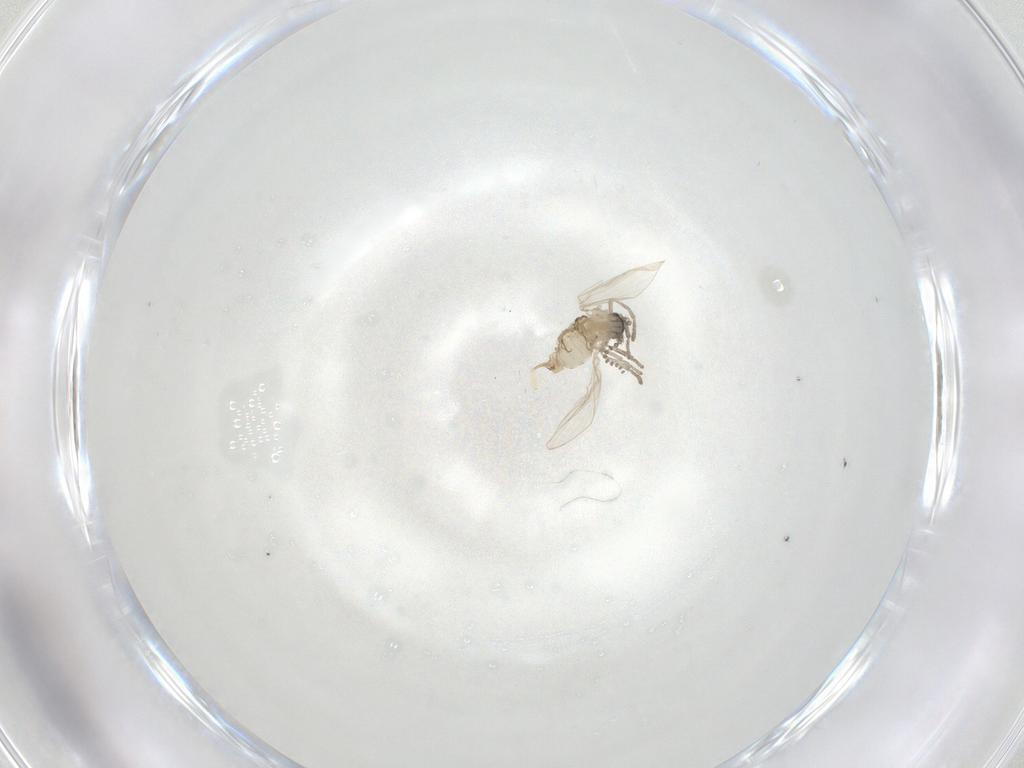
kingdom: Animalia
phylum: Arthropoda
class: Insecta
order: Diptera
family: Psychodidae
